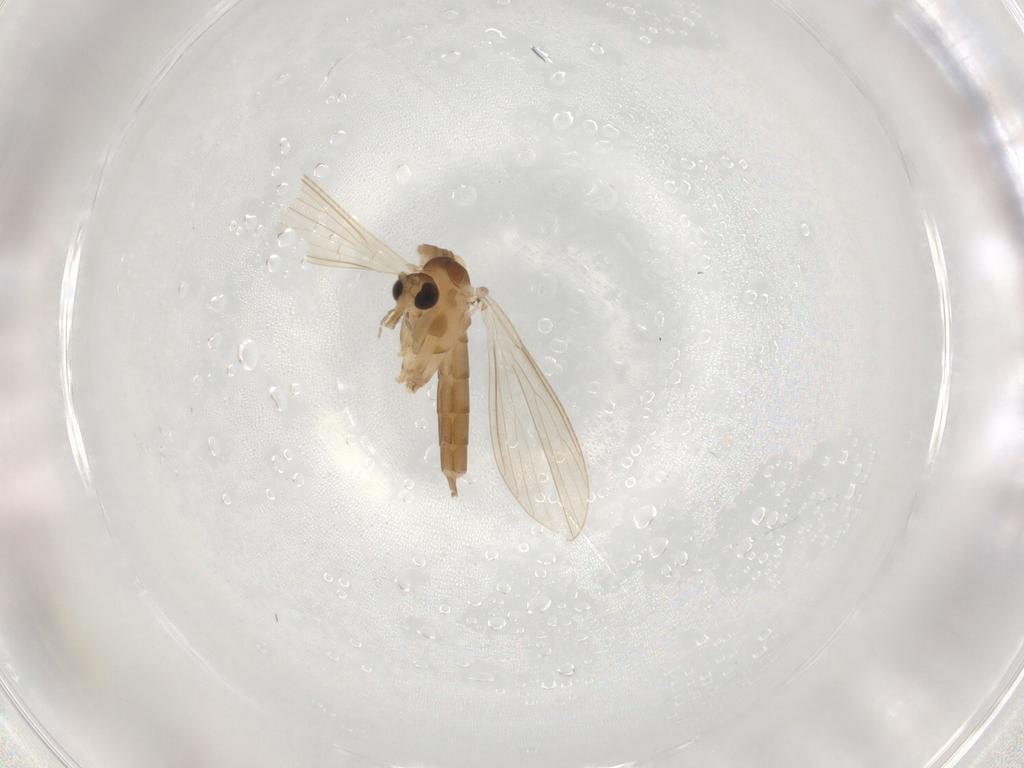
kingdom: Animalia
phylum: Arthropoda
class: Insecta
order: Diptera
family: Psychodidae
